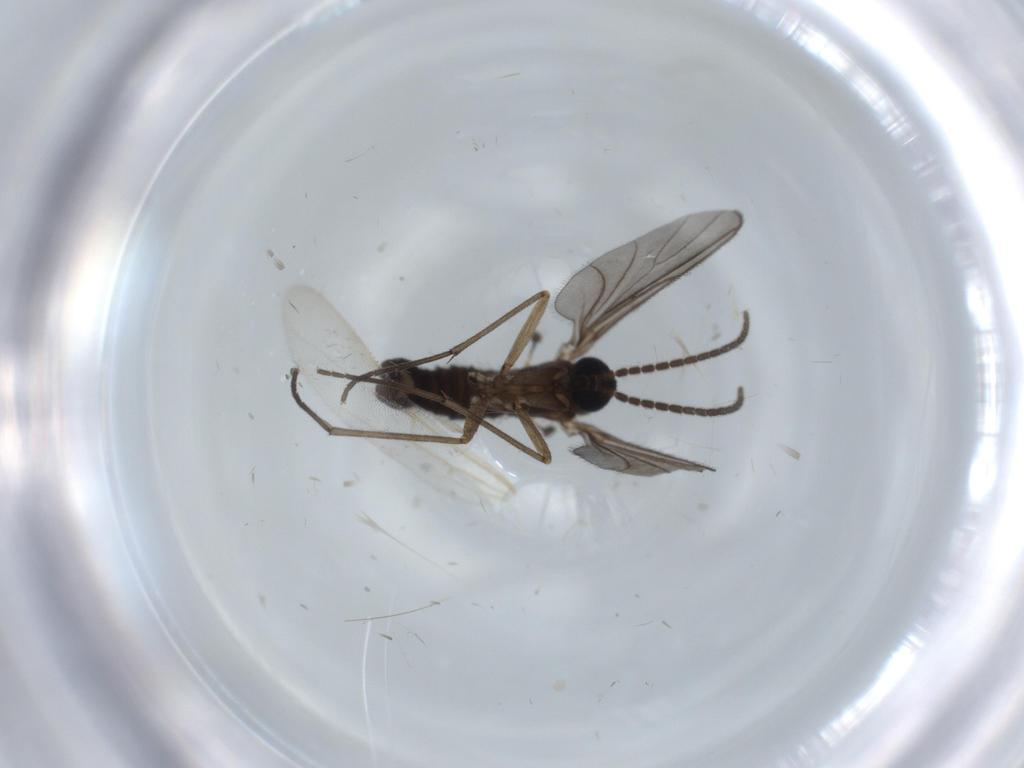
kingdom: Animalia
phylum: Arthropoda
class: Insecta
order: Diptera
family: Sciaridae
